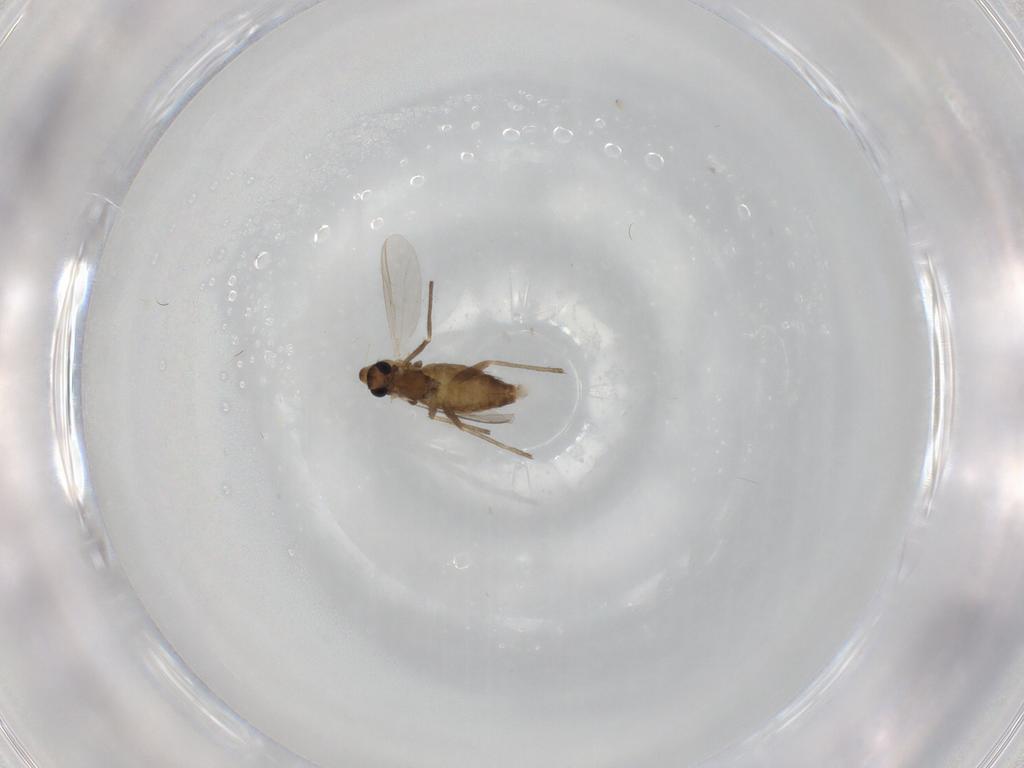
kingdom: Animalia
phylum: Arthropoda
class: Insecta
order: Diptera
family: Chironomidae
